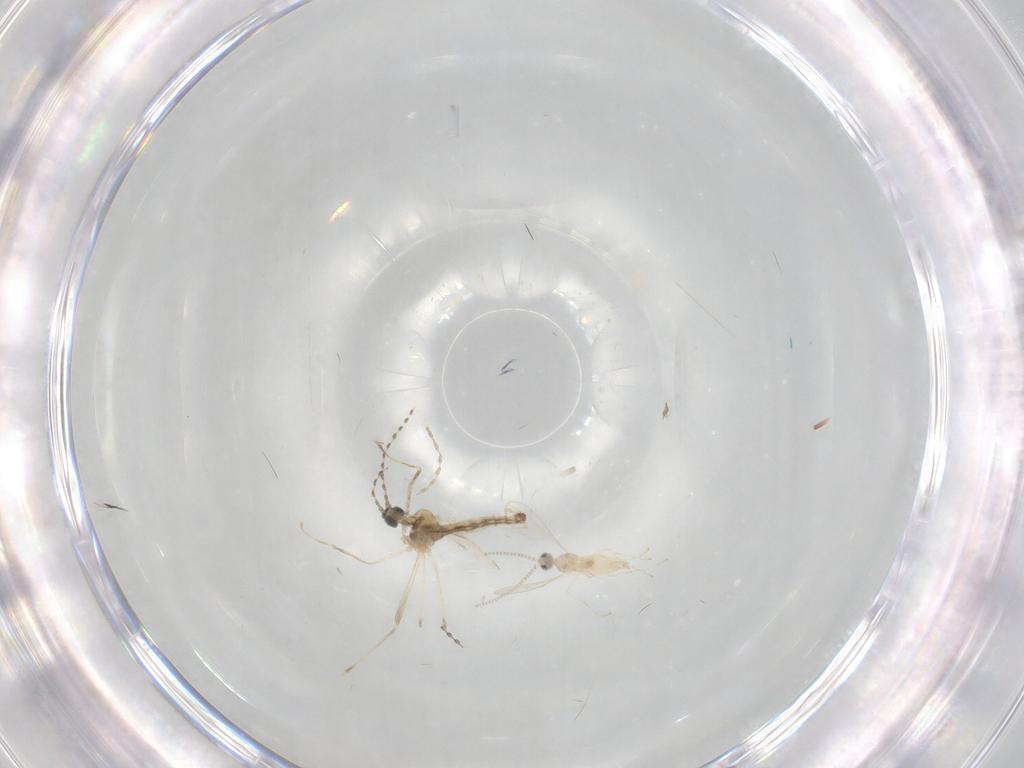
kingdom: Animalia
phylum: Arthropoda
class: Insecta
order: Diptera
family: Cecidomyiidae
